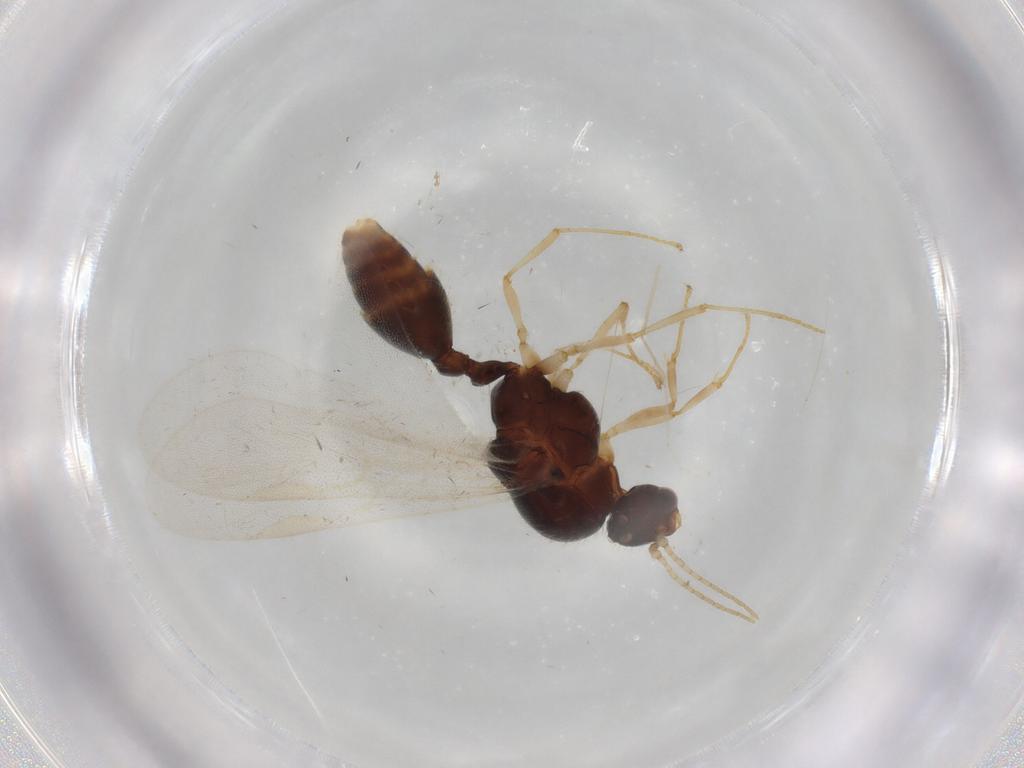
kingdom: Animalia
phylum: Arthropoda
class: Insecta
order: Hymenoptera
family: Formicidae
